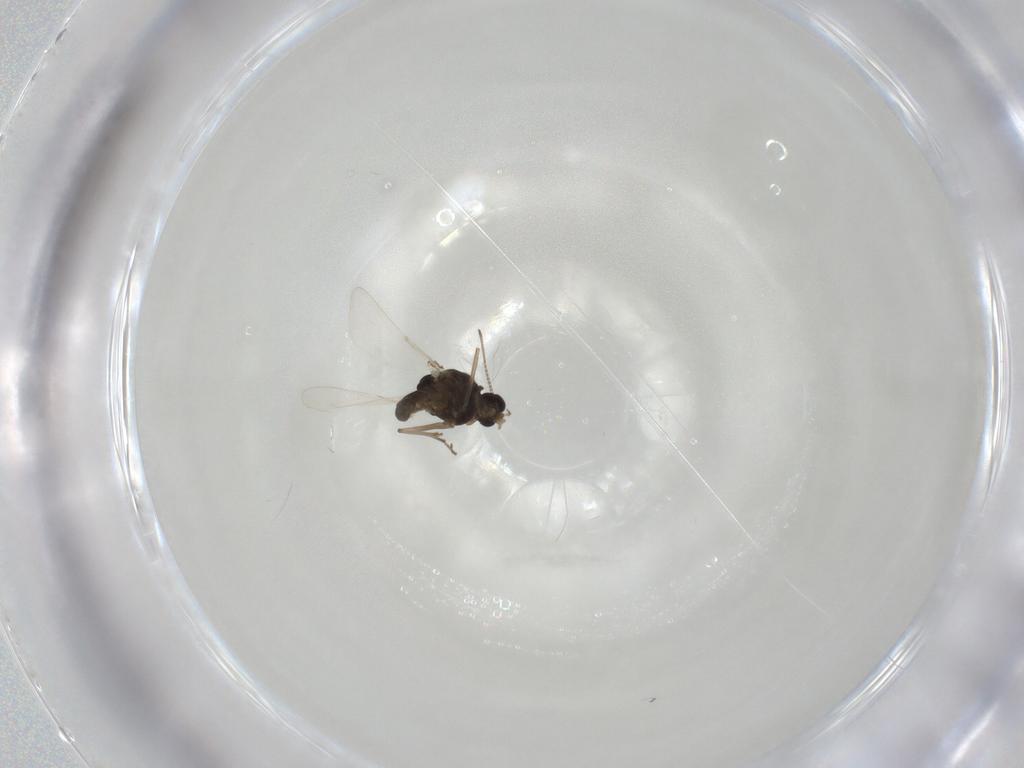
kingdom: Animalia
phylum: Arthropoda
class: Insecta
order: Diptera
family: Chironomidae
